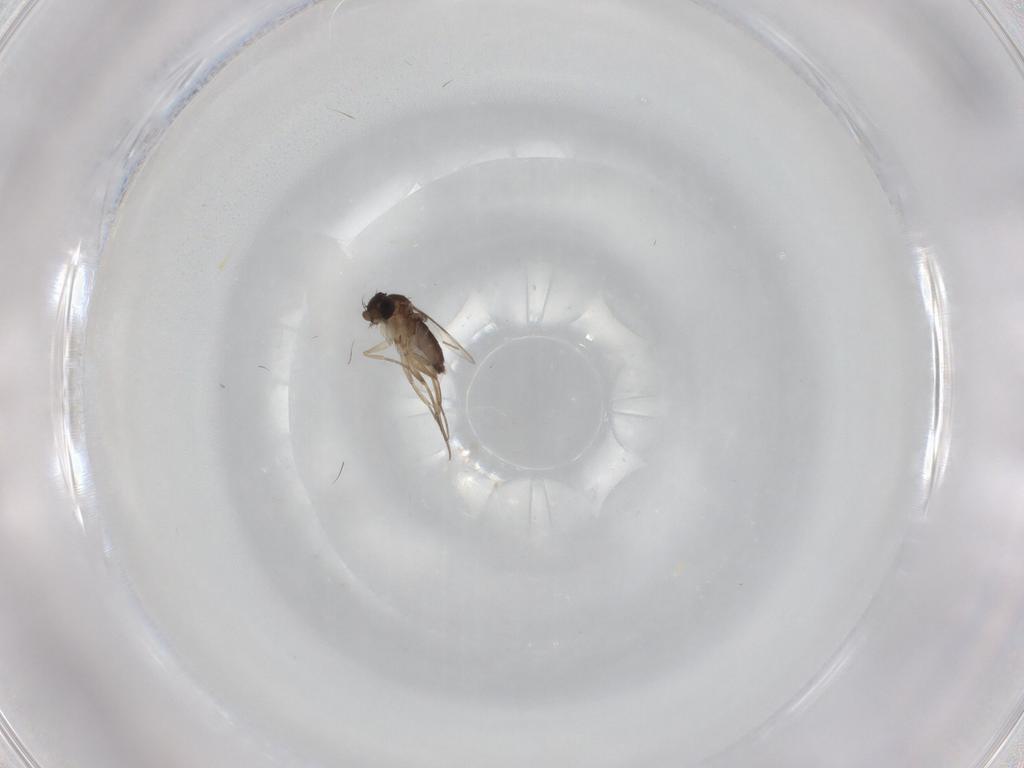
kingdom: Animalia
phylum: Arthropoda
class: Insecta
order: Diptera
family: Chironomidae
